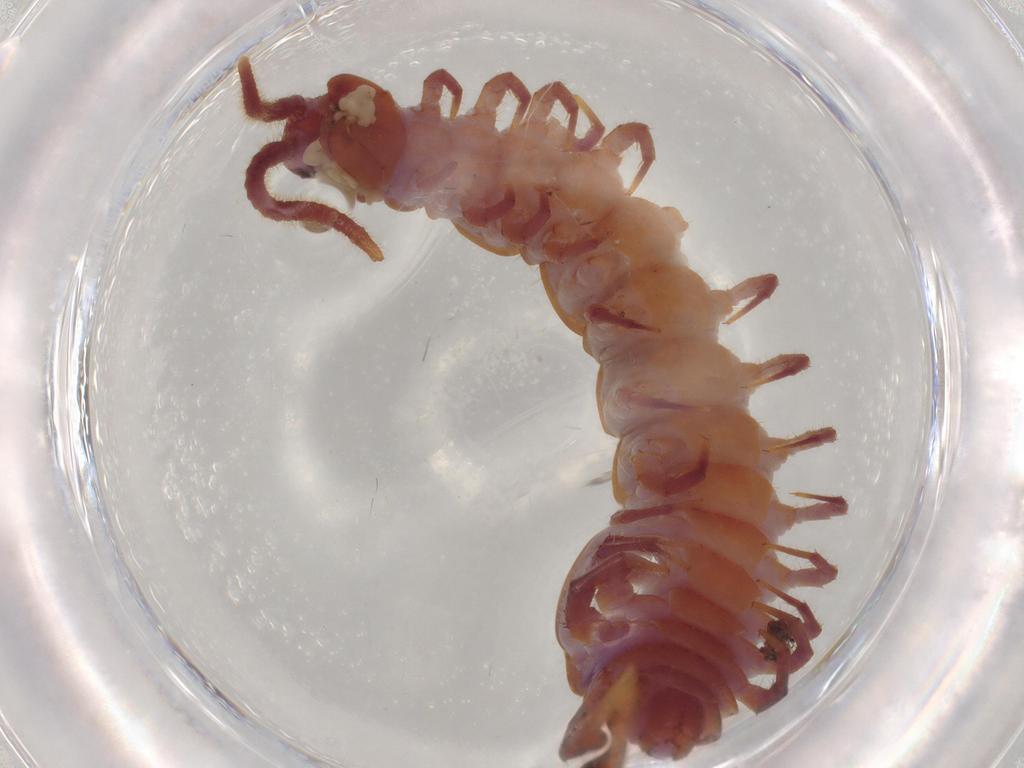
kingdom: Animalia
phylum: Arthropoda
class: Chilopoda
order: Lithobiomorpha
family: Lithobiidae
